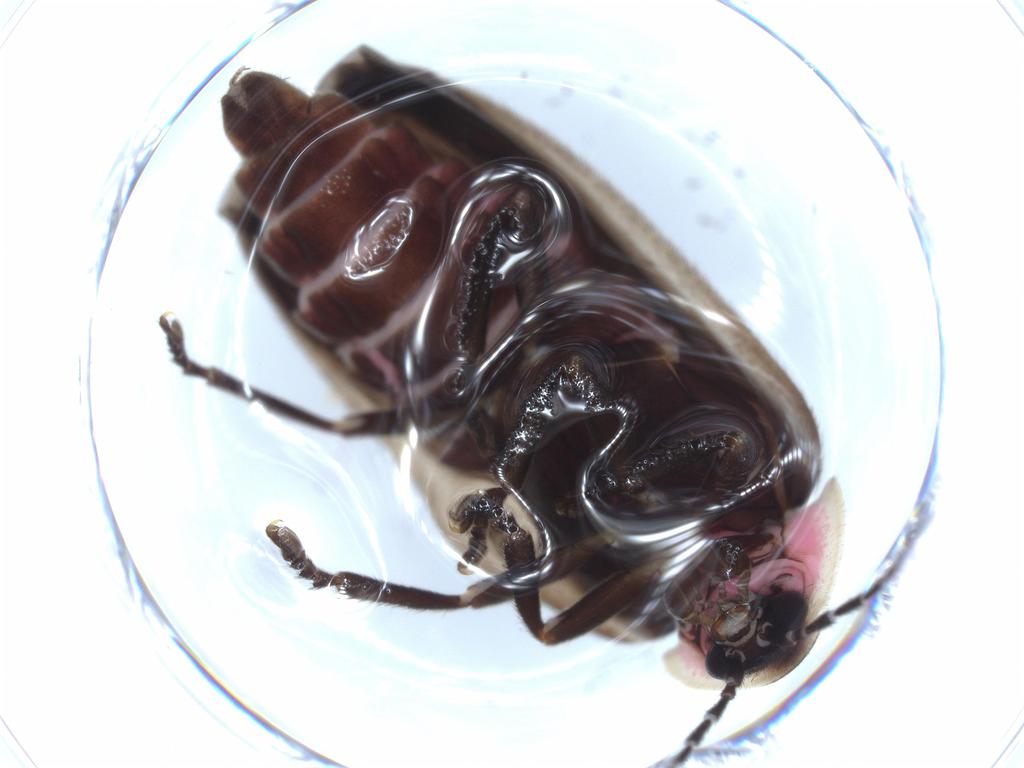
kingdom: Animalia
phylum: Arthropoda
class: Insecta
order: Coleoptera
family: Lampyridae
